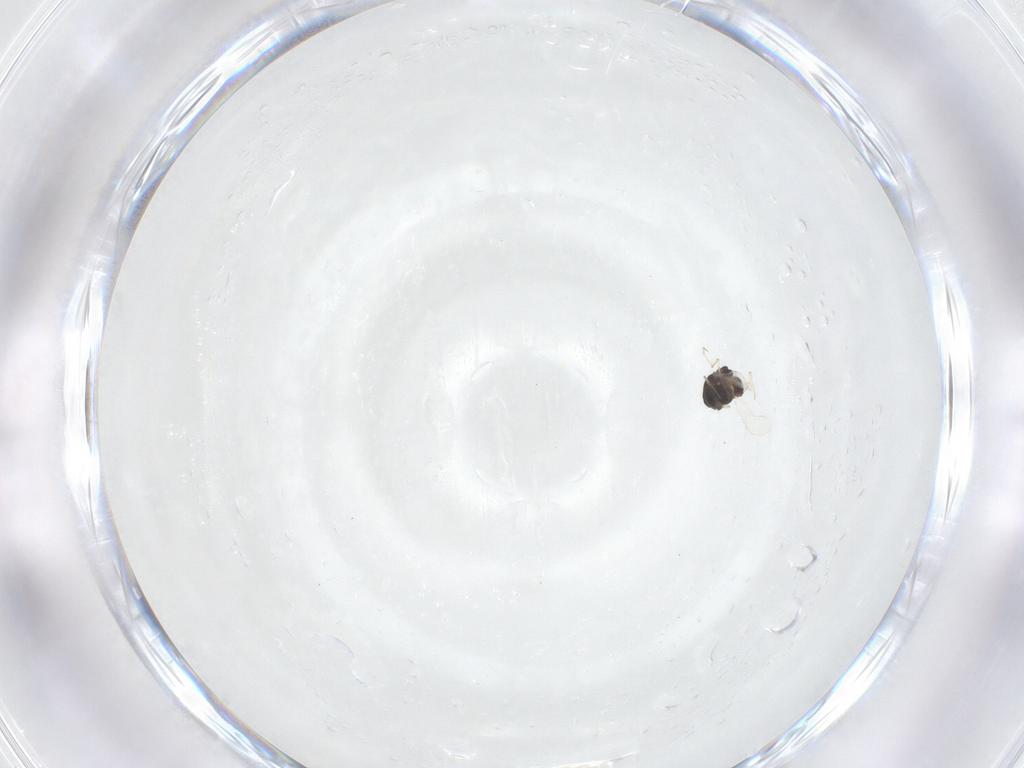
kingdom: Animalia
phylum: Arthropoda
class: Insecta
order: Diptera
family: Chironomidae
